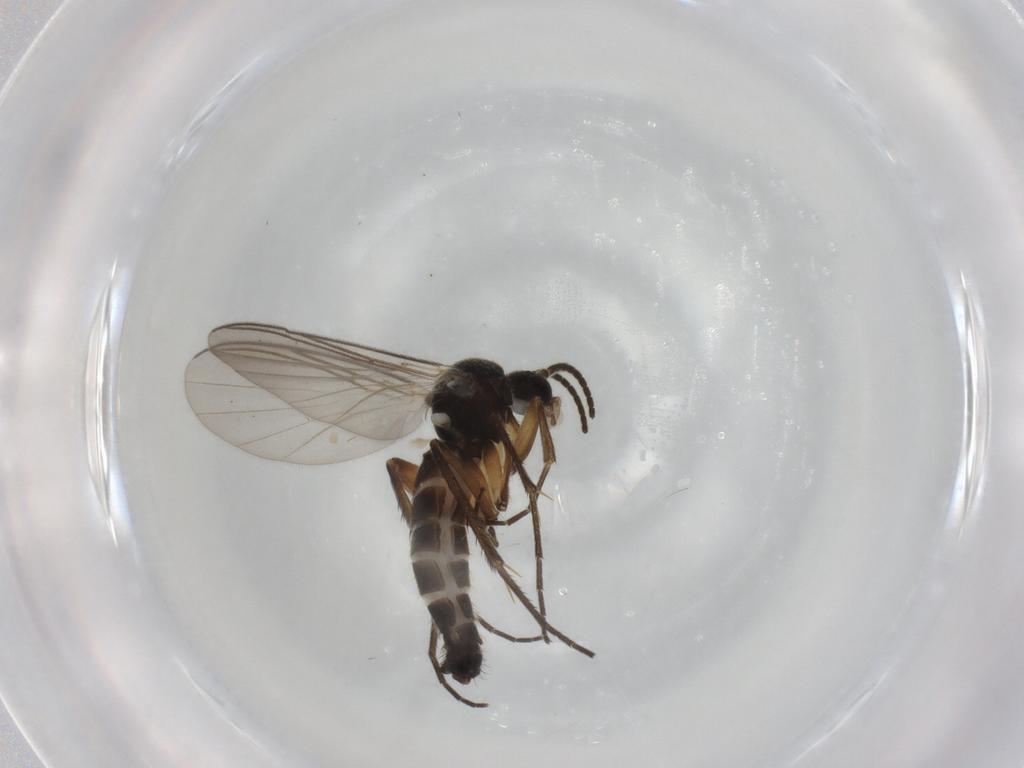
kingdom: Animalia
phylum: Arthropoda
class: Insecta
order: Diptera
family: Mycetophilidae
